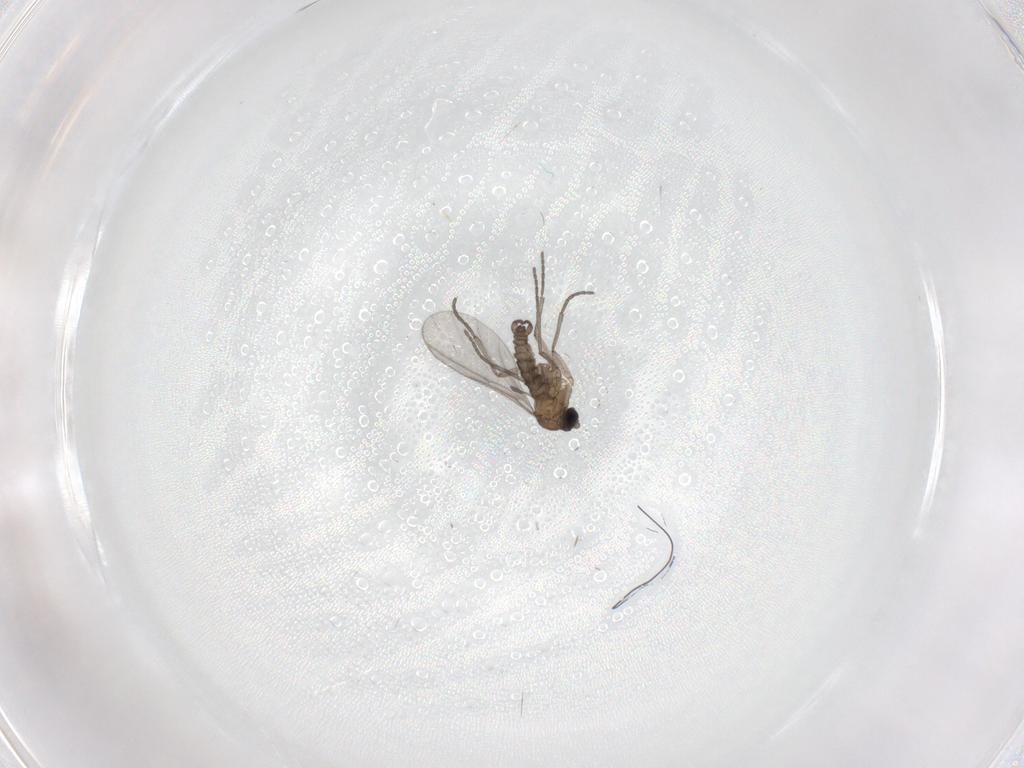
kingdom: Animalia
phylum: Arthropoda
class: Insecta
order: Diptera
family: Sciaridae
